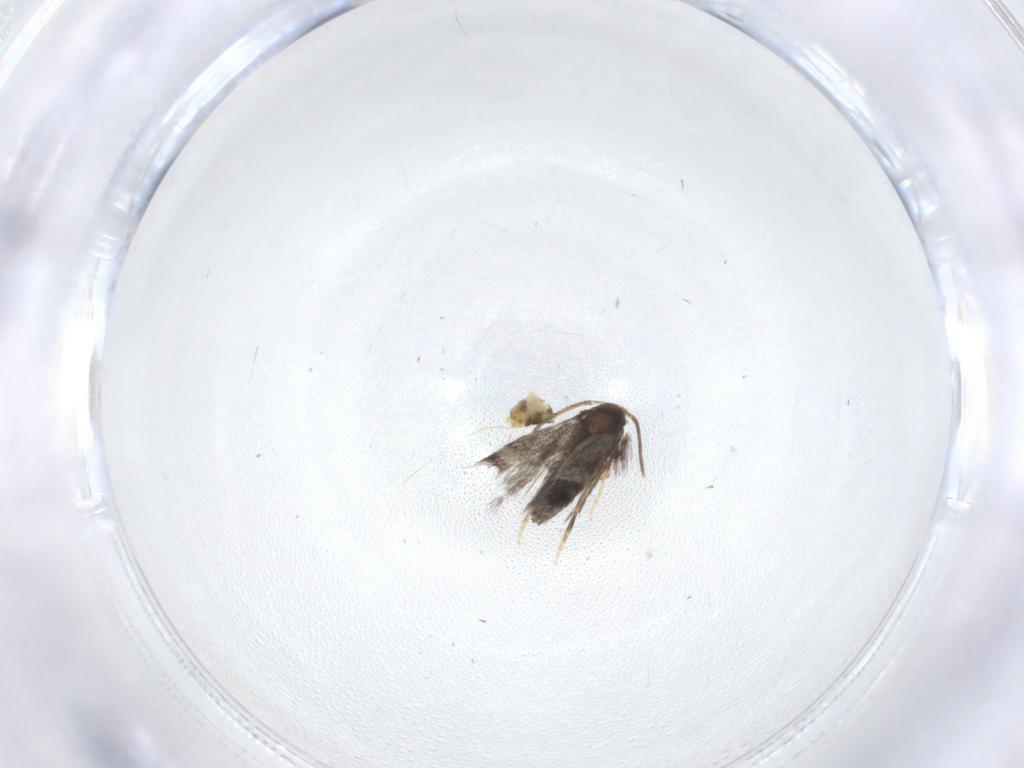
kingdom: Animalia
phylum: Arthropoda
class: Insecta
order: Lepidoptera
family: Nepticulidae
